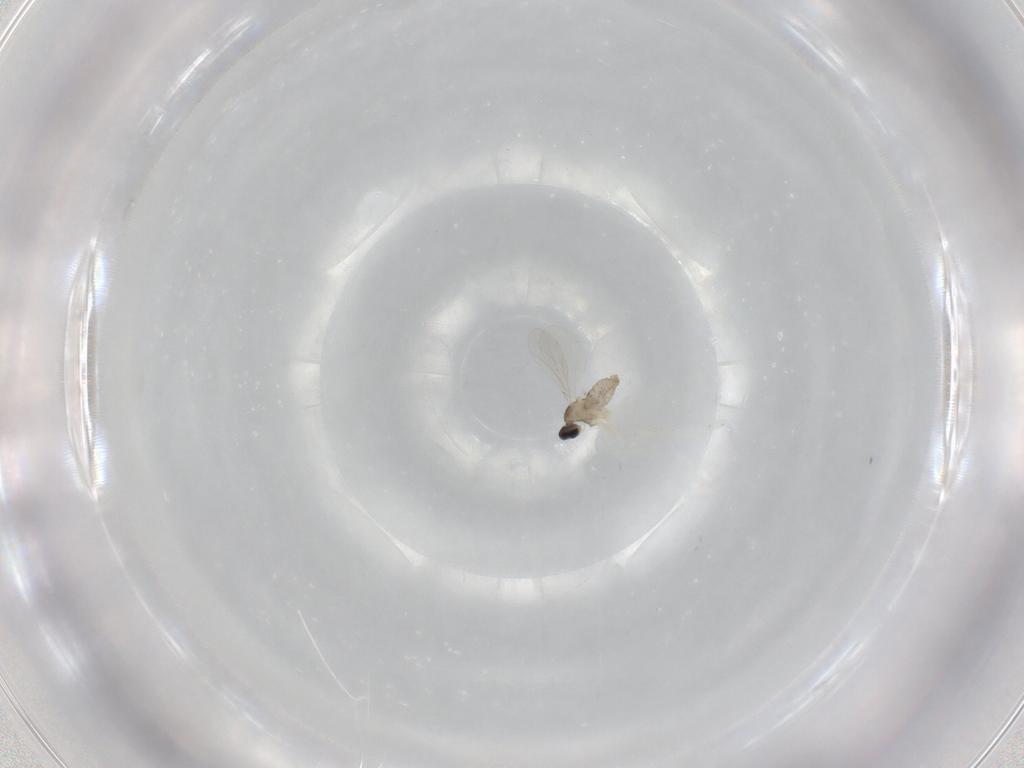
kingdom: Animalia
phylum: Arthropoda
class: Insecta
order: Diptera
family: Cecidomyiidae
